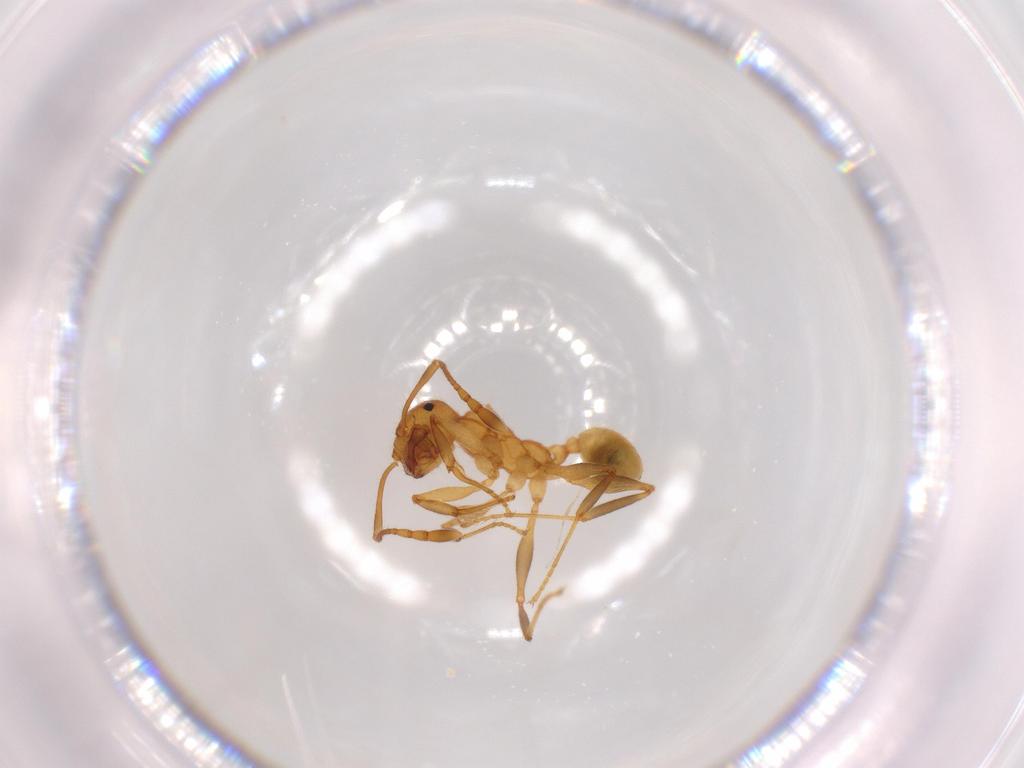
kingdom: Animalia
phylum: Arthropoda
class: Insecta
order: Hymenoptera
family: Formicidae
